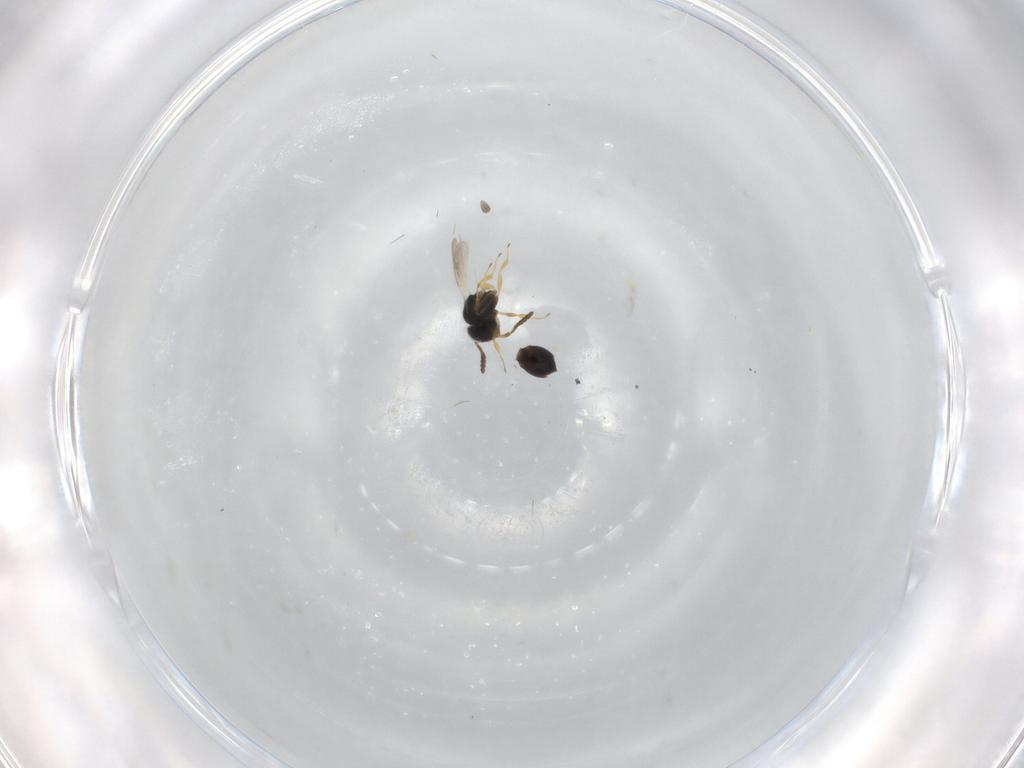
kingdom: Animalia
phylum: Arthropoda
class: Insecta
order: Hymenoptera
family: Scelionidae
